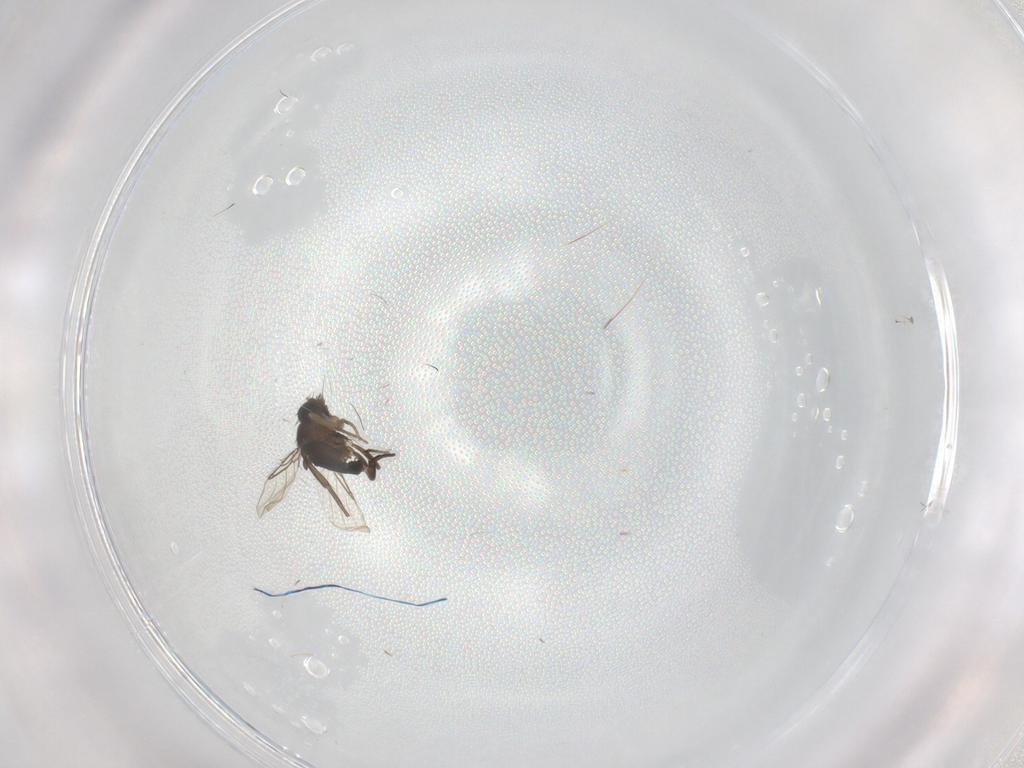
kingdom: Animalia
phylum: Arthropoda
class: Insecta
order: Diptera
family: Phoridae
